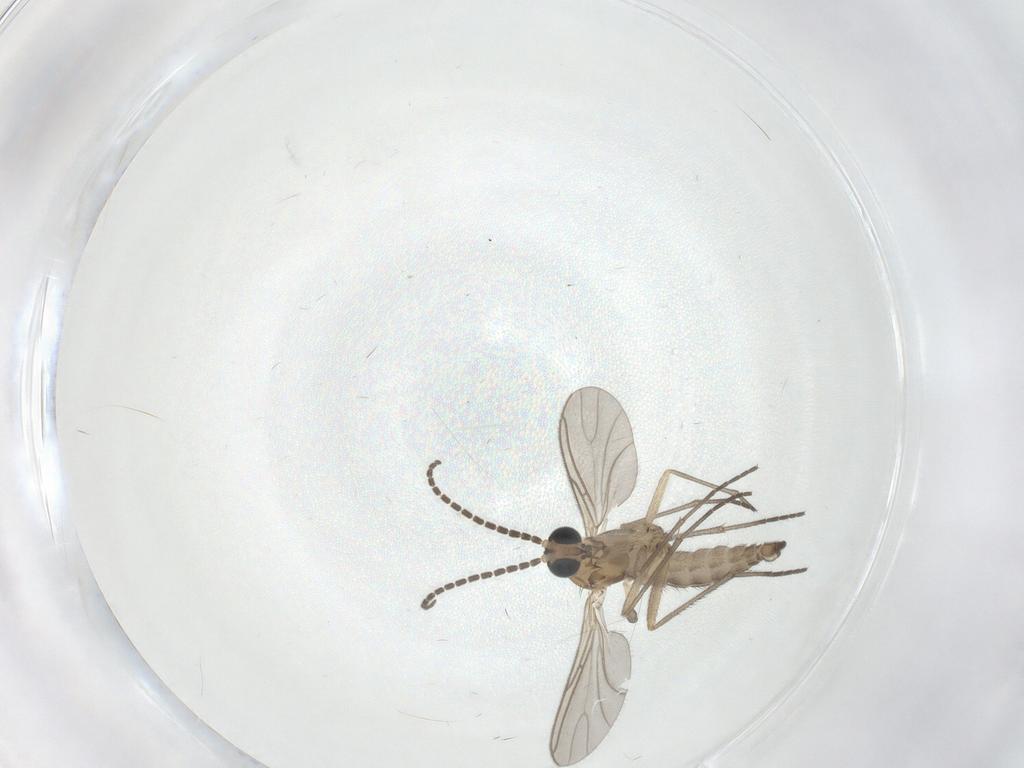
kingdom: Animalia
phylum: Arthropoda
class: Insecta
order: Diptera
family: Sciaridae
